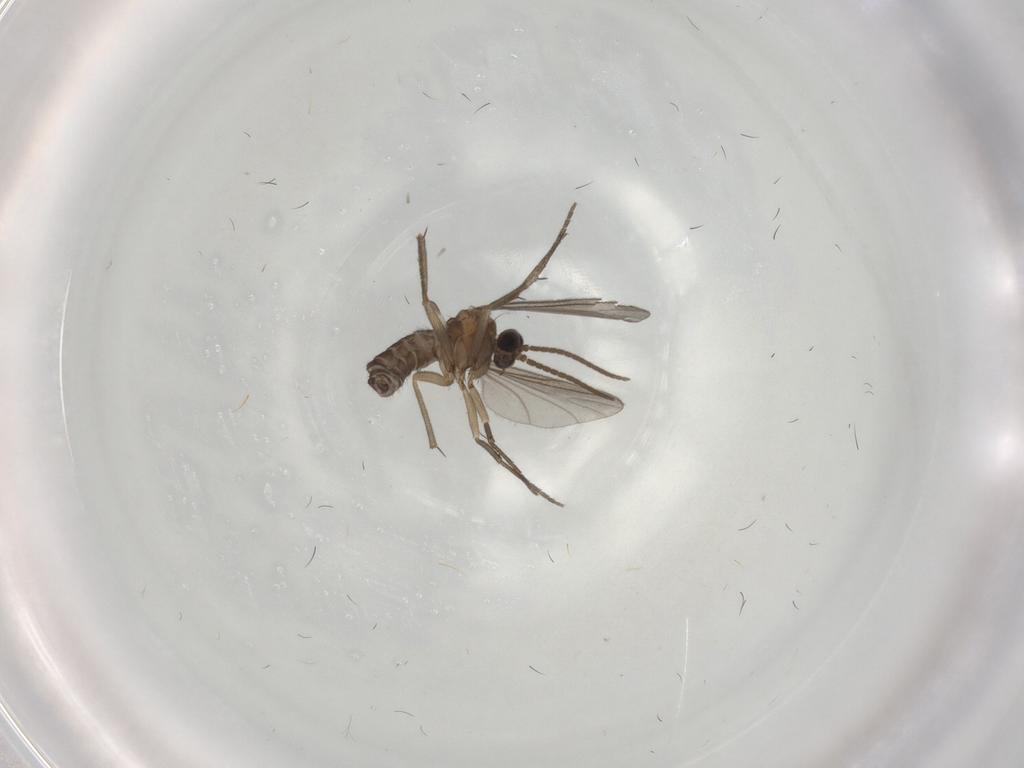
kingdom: Animalia
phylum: Arthropoda
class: Insecta
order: Diptera
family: Sciaridae
